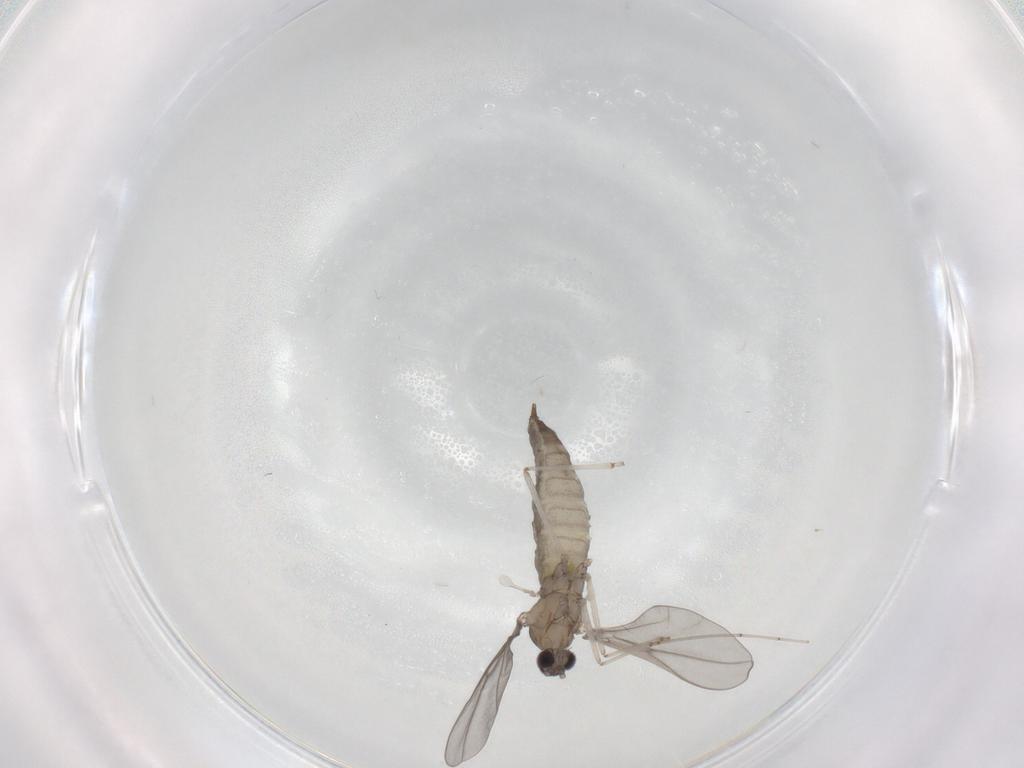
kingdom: Animalia
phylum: Arthropoda
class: Insecta
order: Diptera
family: Cecidomyiidae
